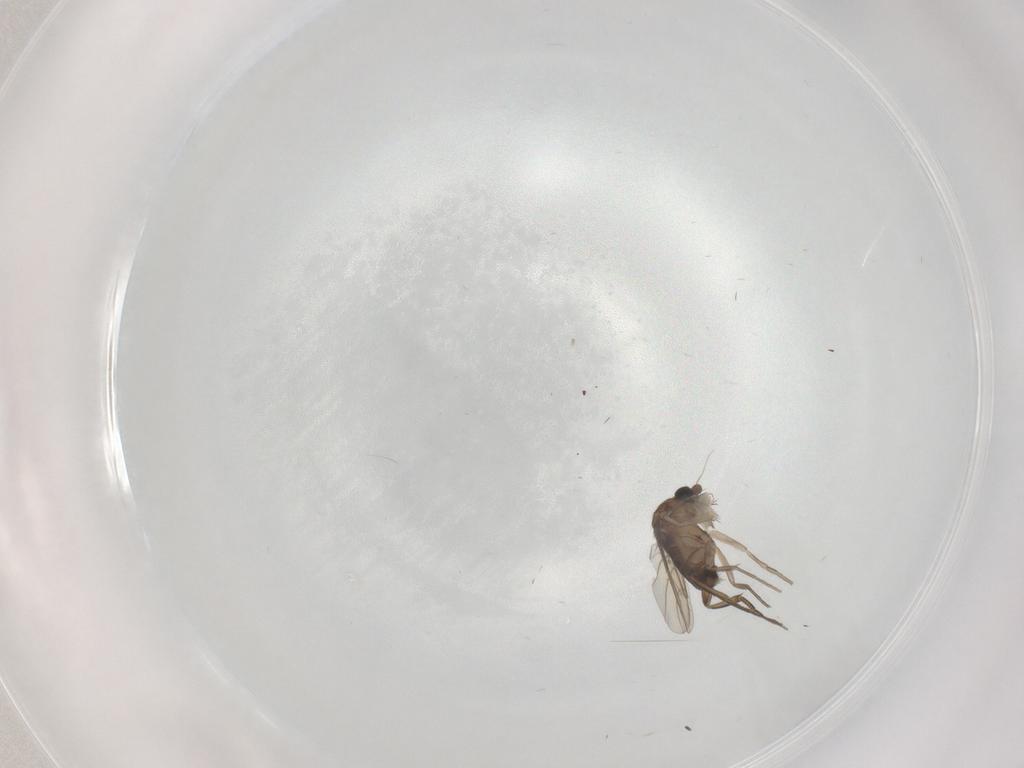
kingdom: Animalia
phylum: Arthropoda
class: Insecta
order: Diptera
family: Phoridae
